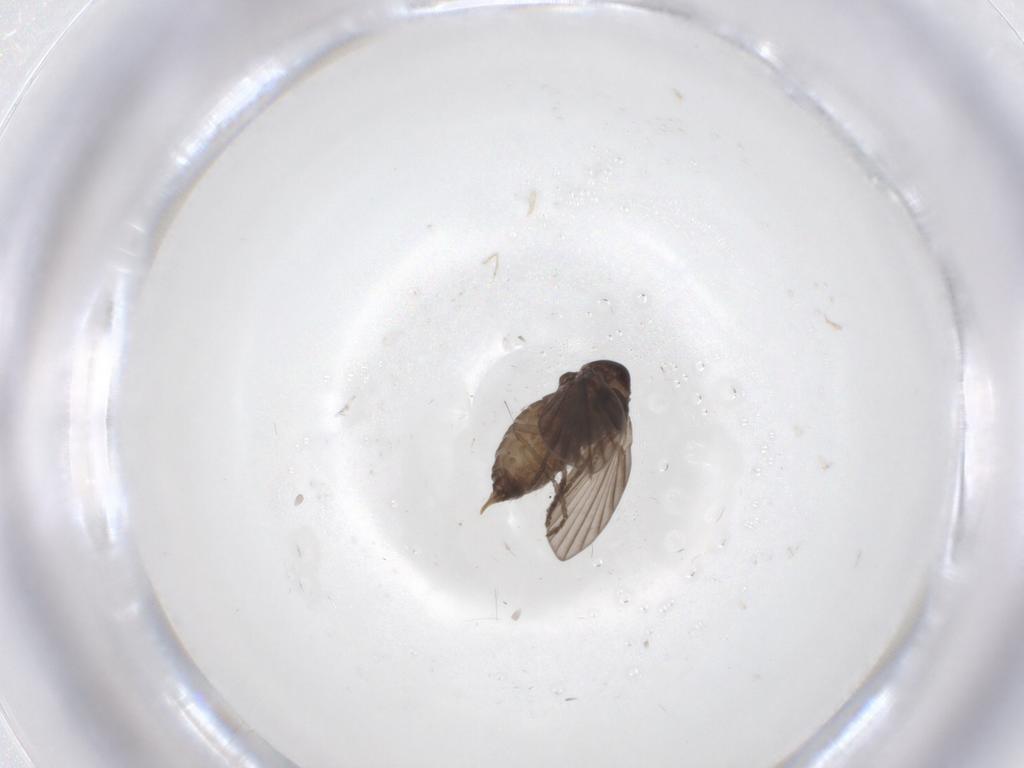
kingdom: Animalia
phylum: Arthropoda
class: Insecta
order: Diptera
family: Psychodidae
